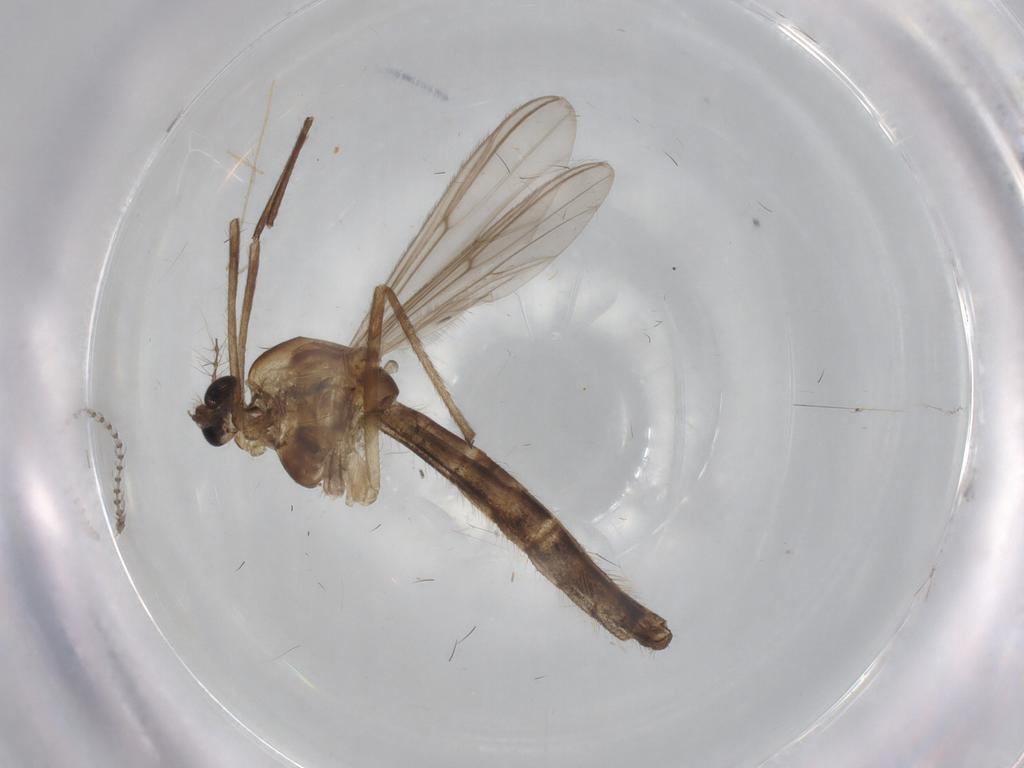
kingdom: Animalia
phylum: Arthropoda
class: Insecta
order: Diptera
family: Chironomidae
